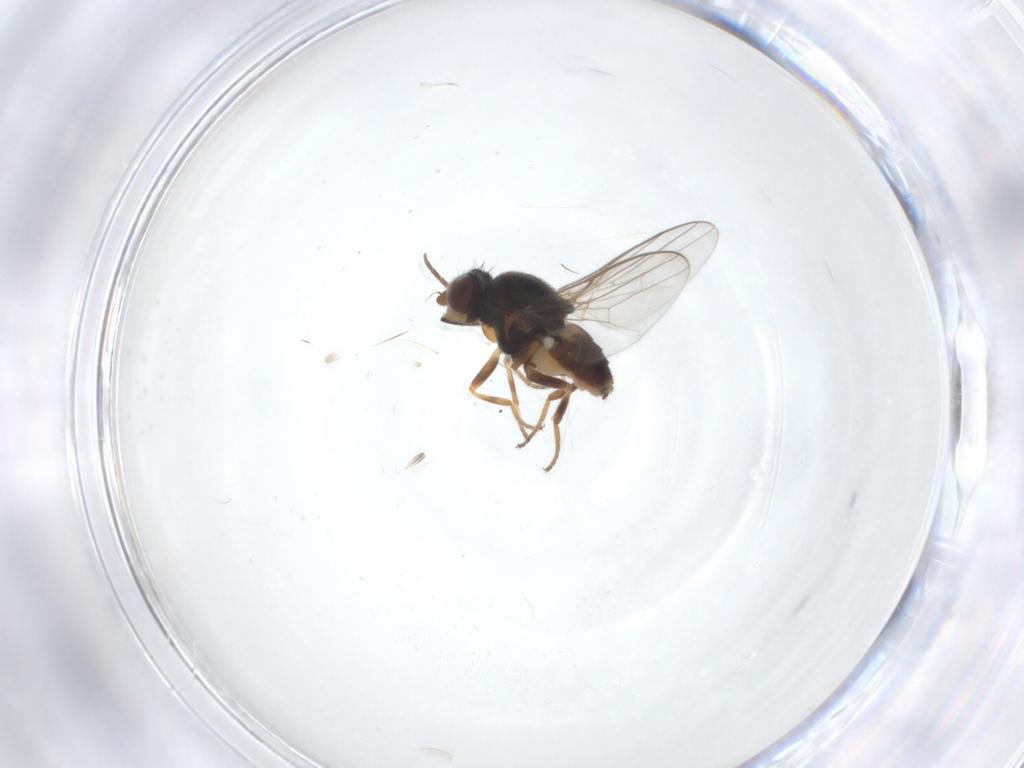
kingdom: Animalia
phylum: Arthropoda
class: Insecta
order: Diptera
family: Chloropidae
